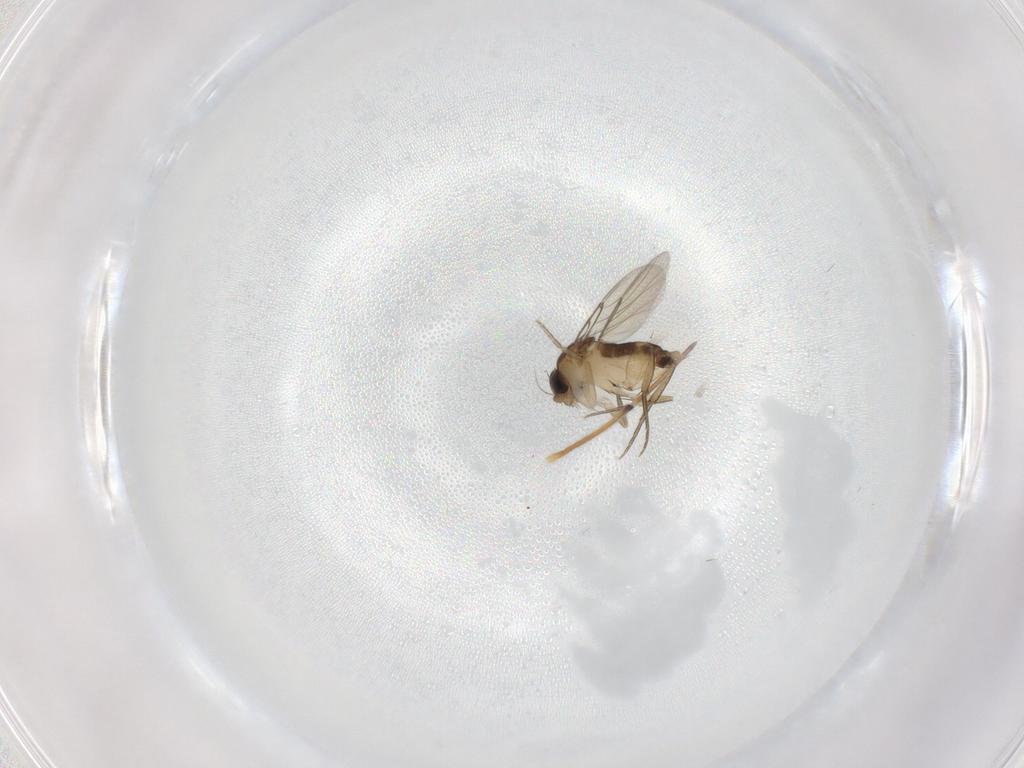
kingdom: Animalia
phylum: Arthropoda
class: Insecta
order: Diptera
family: Phoridae
